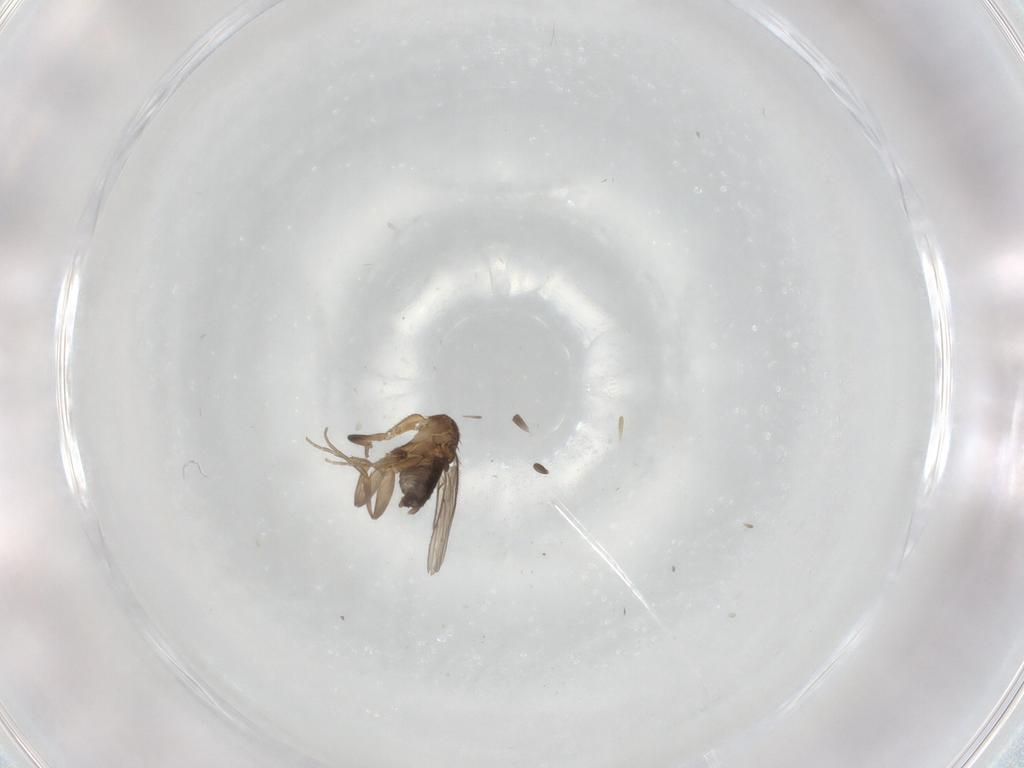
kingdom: Animalia
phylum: Arthropoda
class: Insecta
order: Diptera
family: Phoridae
